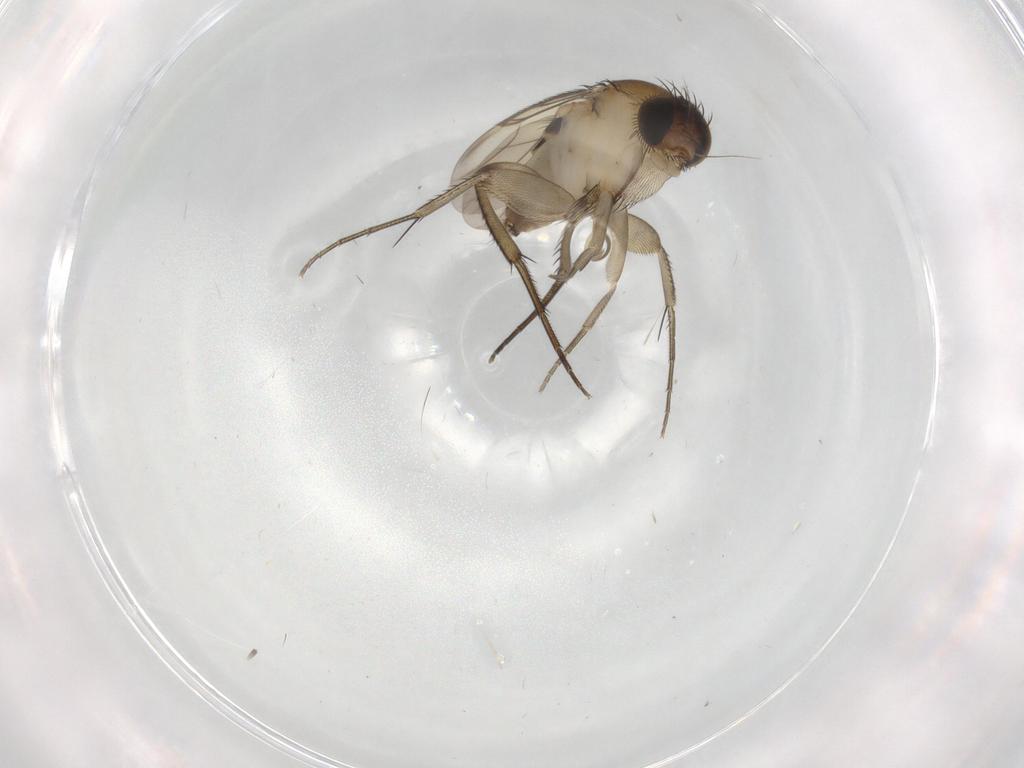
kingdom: Animalia
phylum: Arthropoda
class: Insecta
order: Diptera
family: Phoridae
